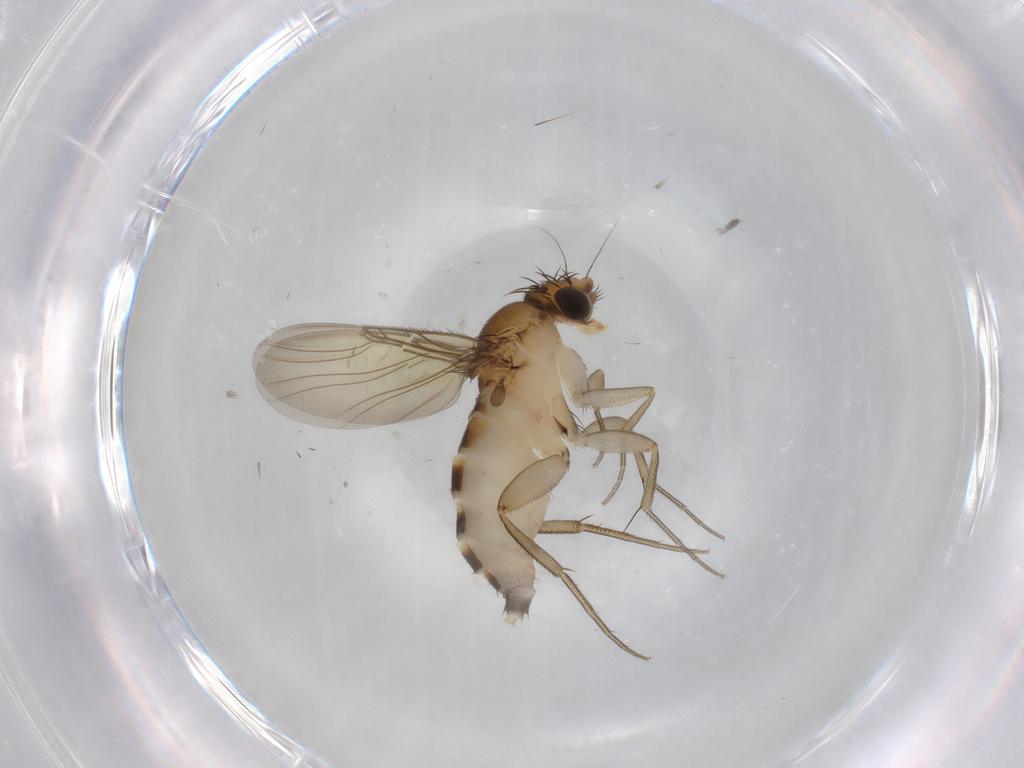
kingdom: Animalia
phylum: Arthropoda
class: Insecta
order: Diptera
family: Phoridae
